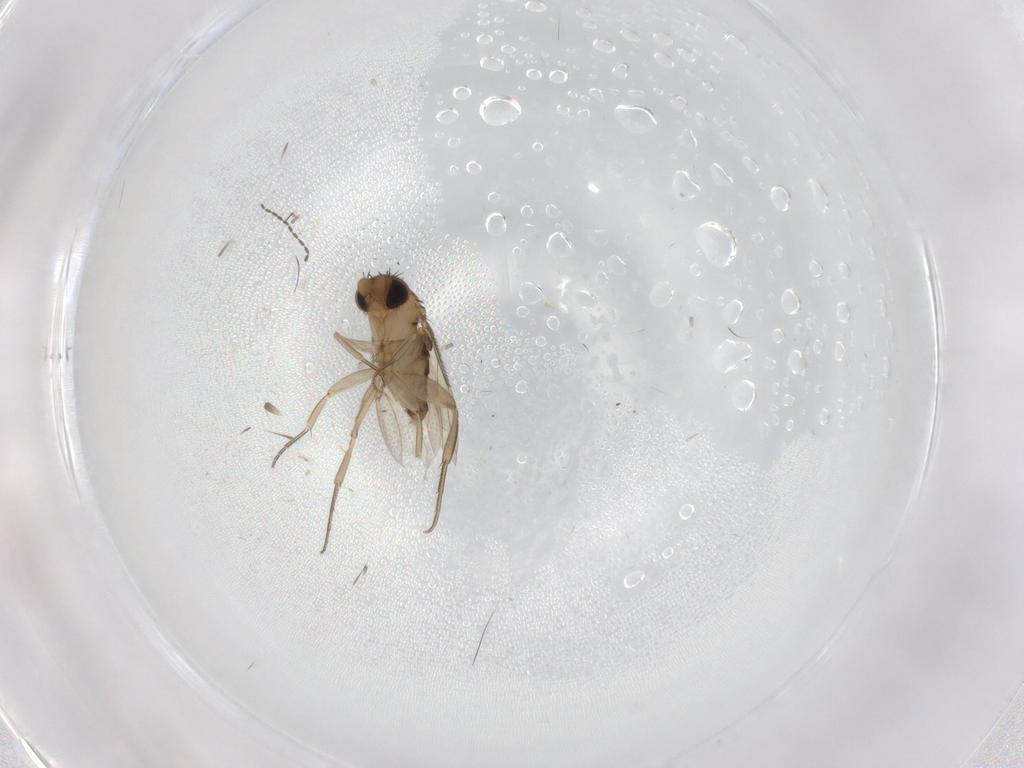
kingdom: Animalia
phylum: Arthropoda
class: Insecta
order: Diptera
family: Phoridae
